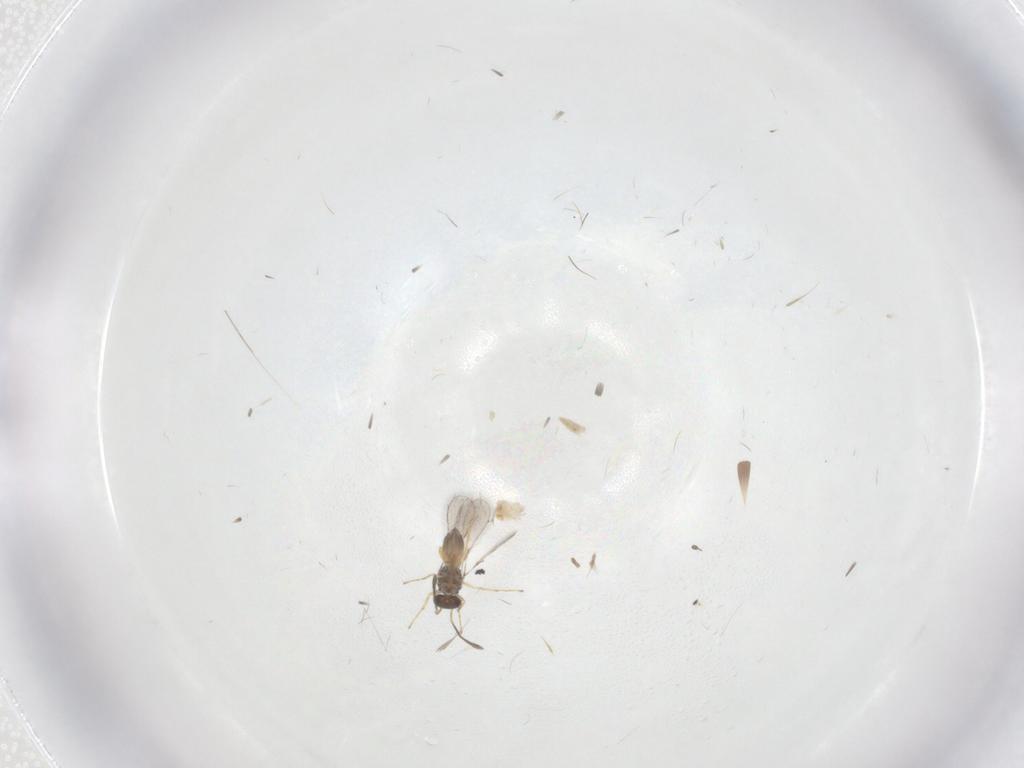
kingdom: Animalia
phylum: Arthropoda
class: Insecta
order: Hymenoptera
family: Mymaridae
